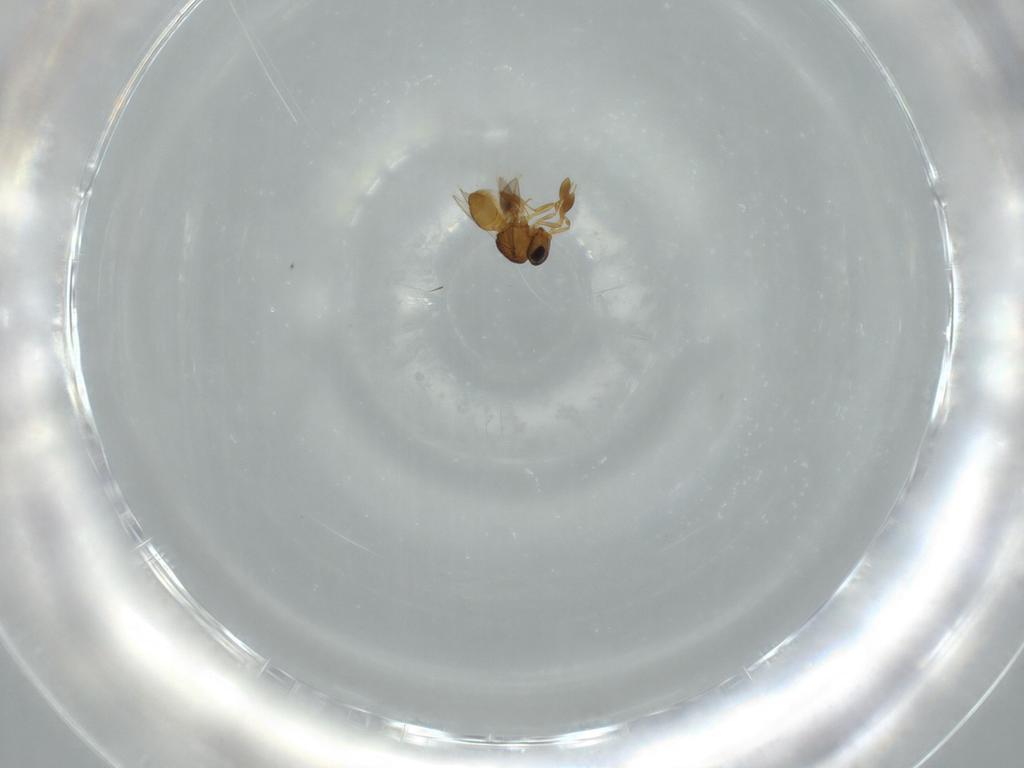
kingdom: Animalia
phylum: Arthropoda
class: Insecta
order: Hymenoptera
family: Scelionidae
